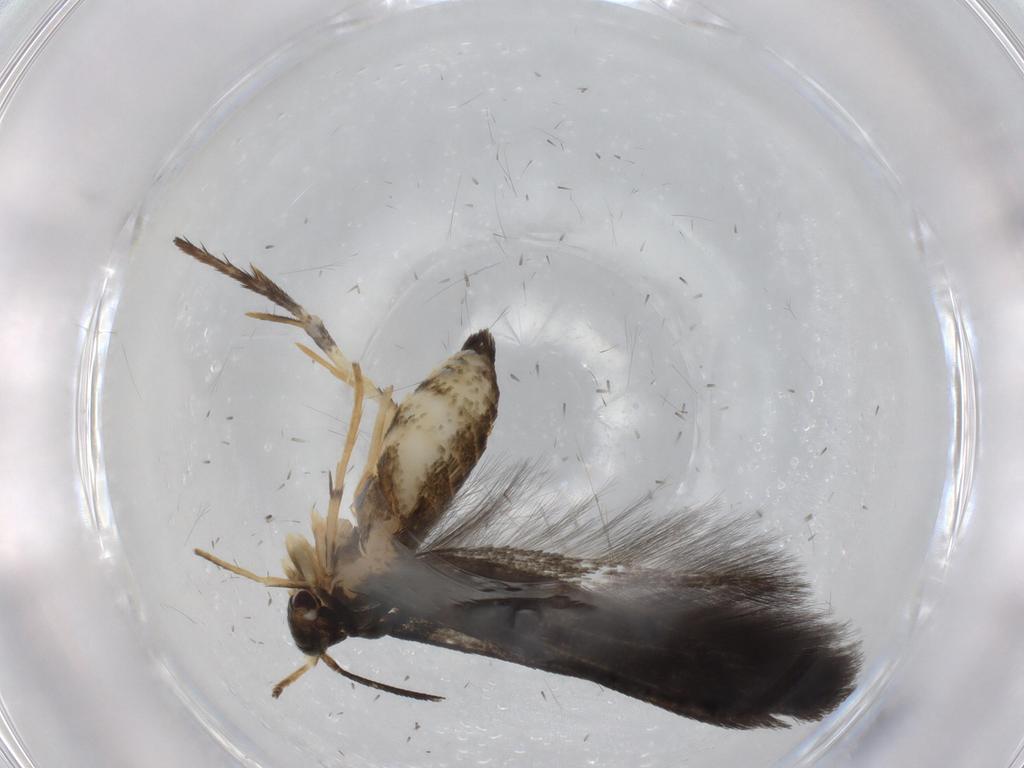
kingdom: Animalia
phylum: Arthropoda
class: Insecta
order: Lepidoptera
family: Stathmopodidae
